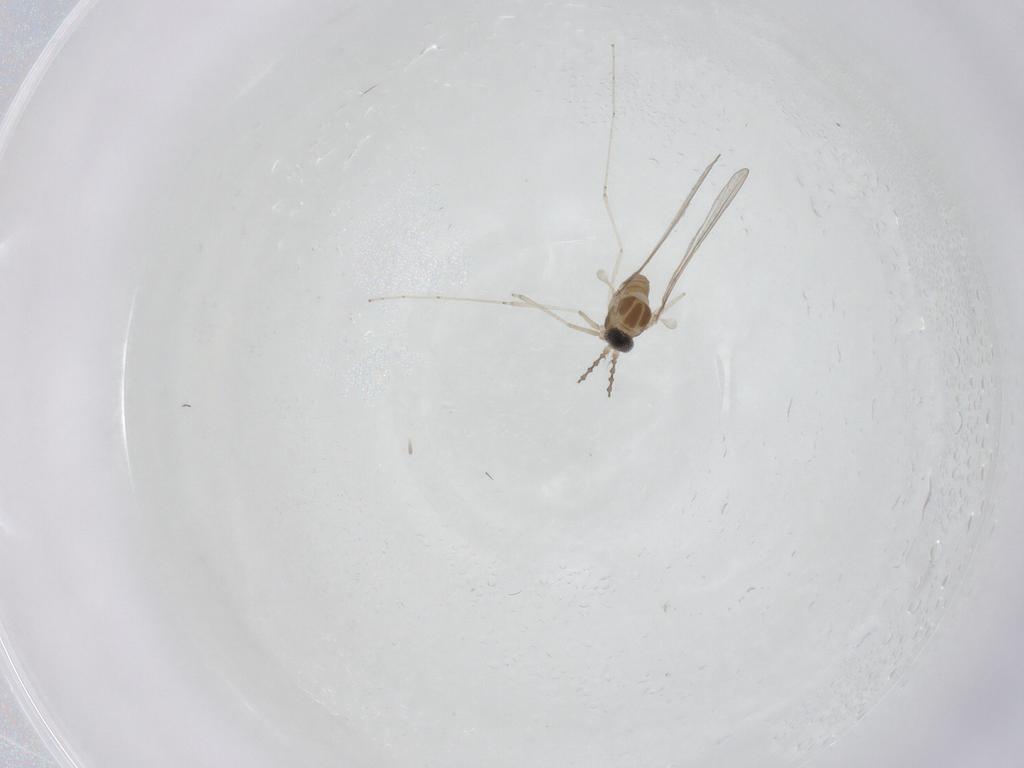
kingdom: Animalia
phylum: Arthropoda
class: Insecta
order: Diptera
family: Cecidomyiidae
